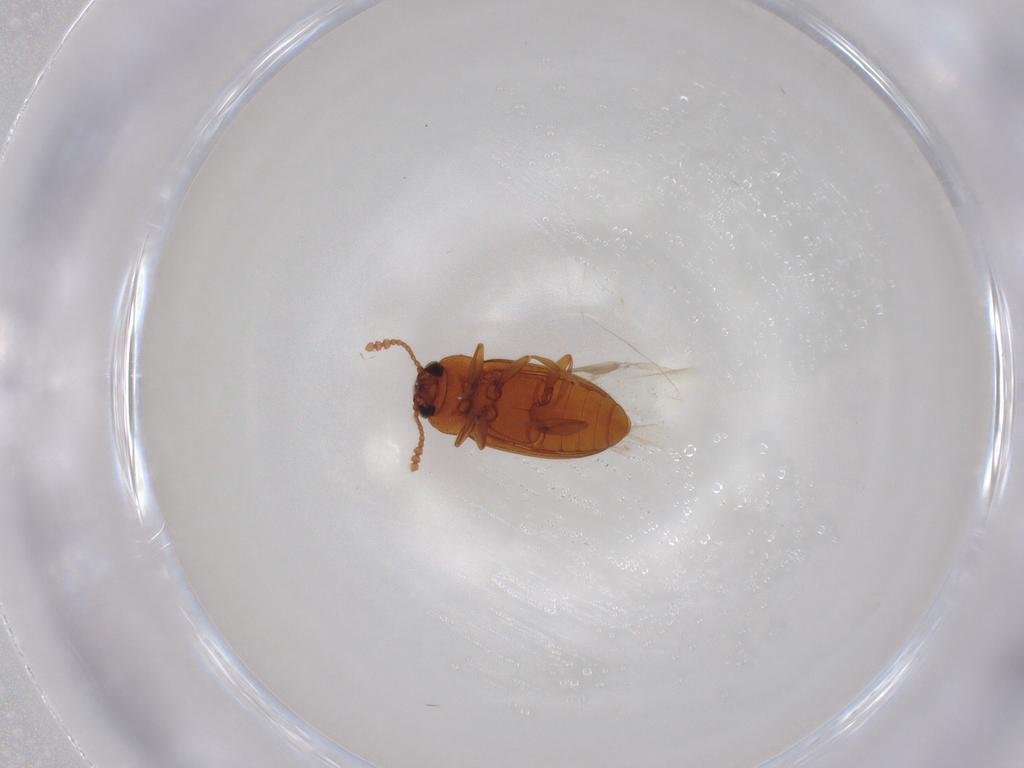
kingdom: Animalia
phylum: Arthropoda
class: Insecta
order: Coleoptera
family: Erotylidae
